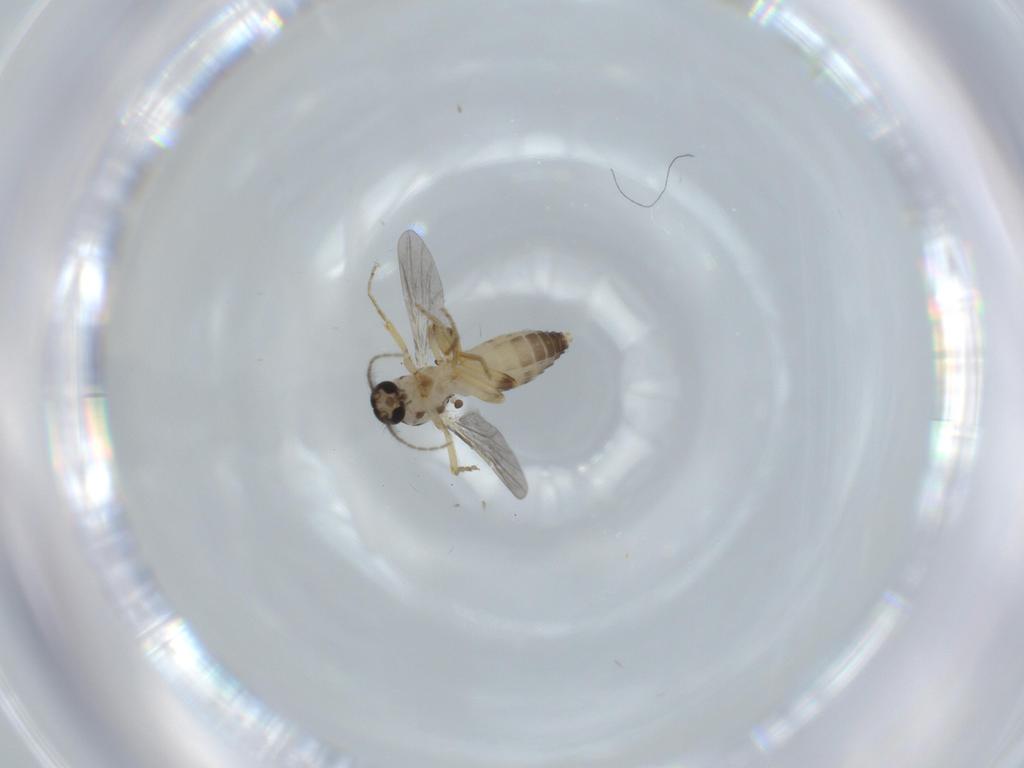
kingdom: Animalia
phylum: Arthropoda
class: Insecta
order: Diptera
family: Ceratopogonidae
